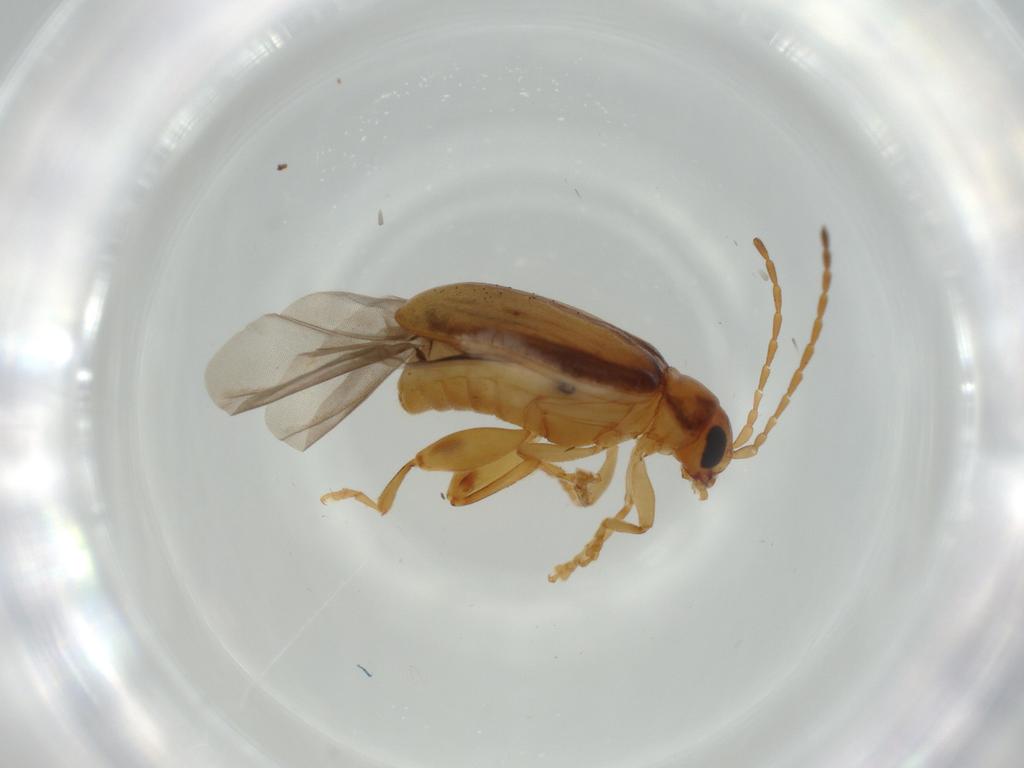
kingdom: Animalia
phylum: Arthropoda
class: Insecta
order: Coleoptera
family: Chrysomelidae
